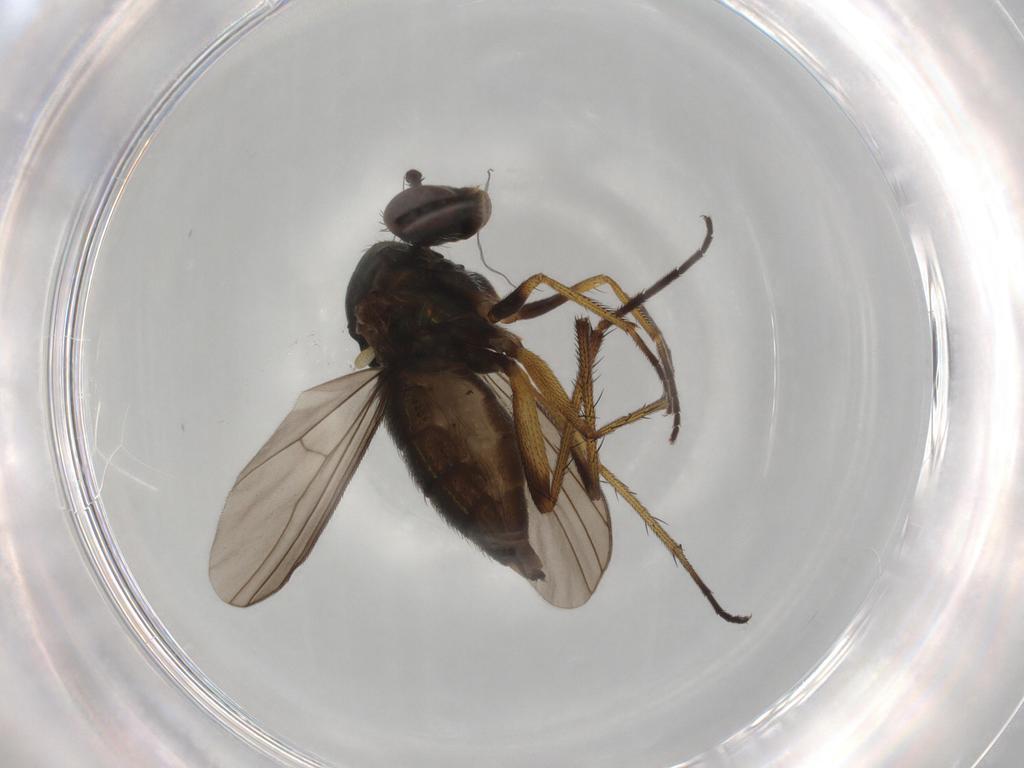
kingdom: Animalia
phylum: Arthropoda
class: Insecta
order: Diptera
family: Dolichopodidae
